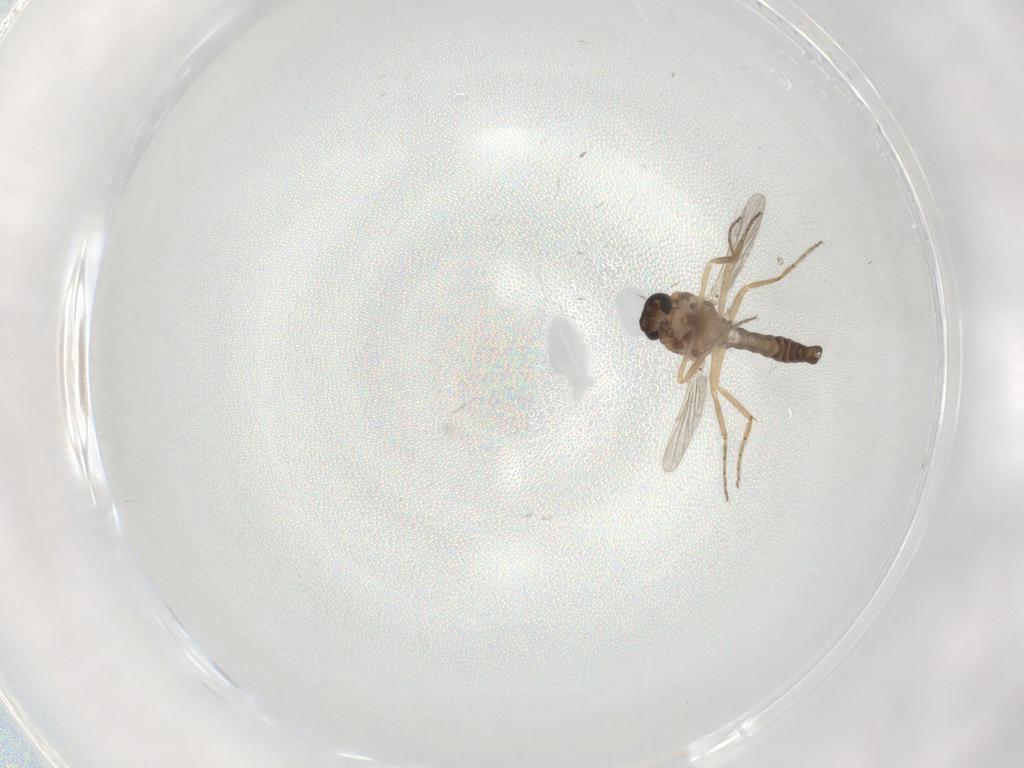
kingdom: Animalia
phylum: Arthropoda
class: Insecta
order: Diptera
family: Ceratopogonidae
